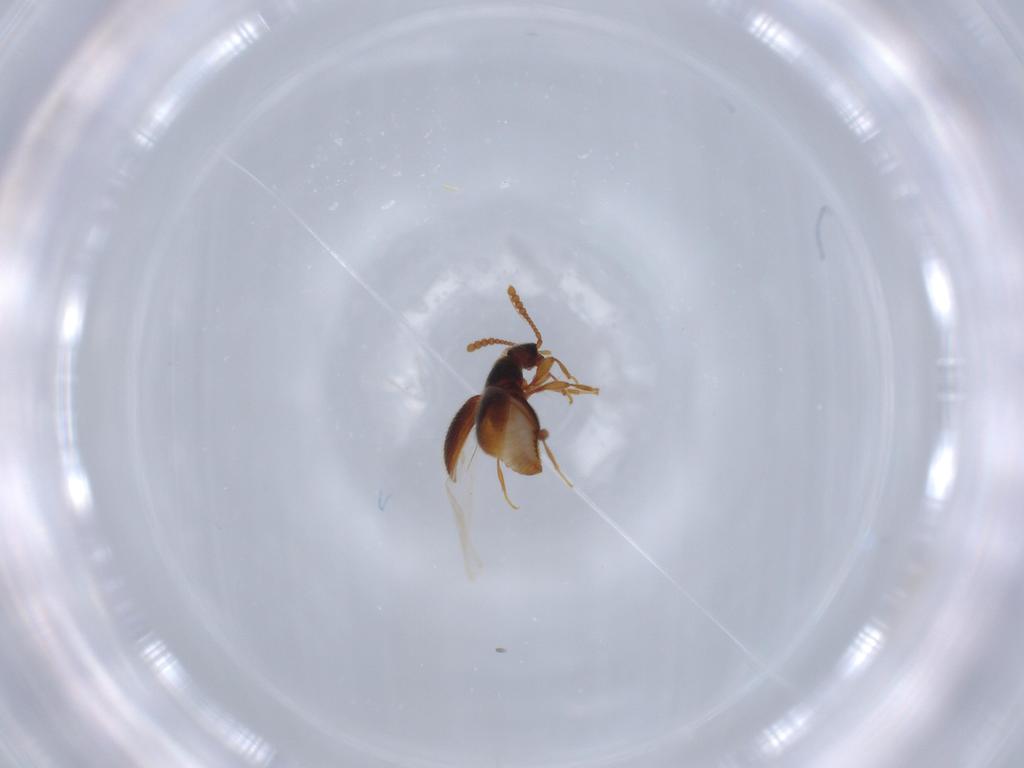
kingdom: Animalia
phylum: Arthropoda
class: Insecta
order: Coleoptera
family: Staphylinidae
